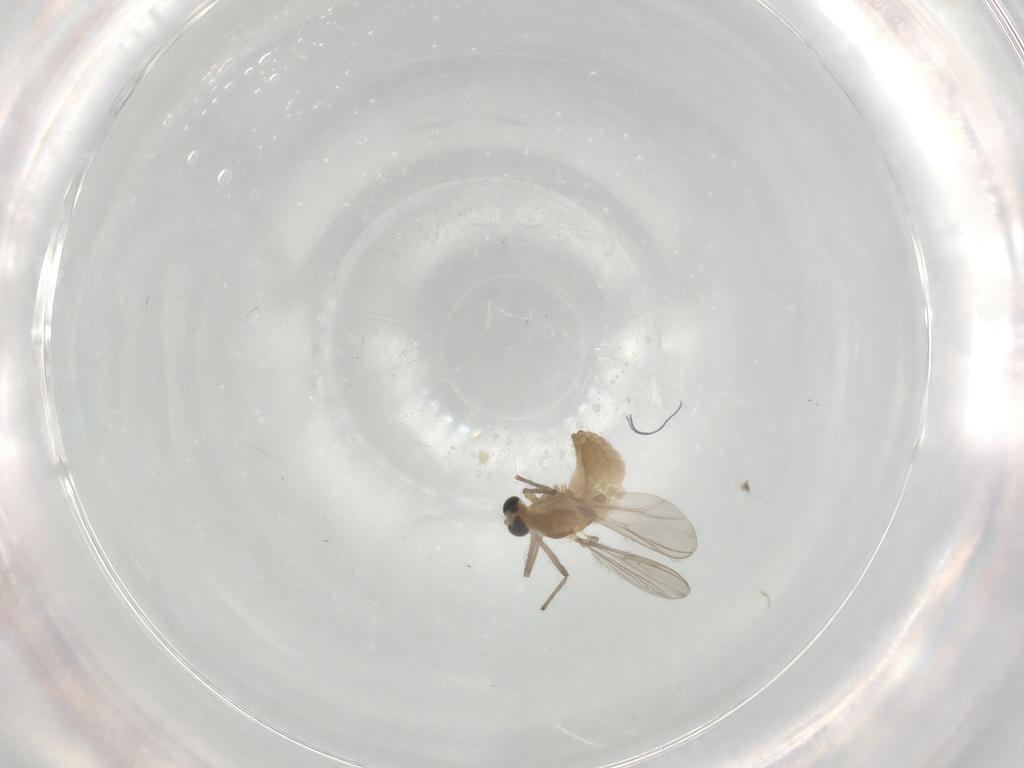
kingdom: Animalia
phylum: Arthropoda
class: Insecta
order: Diptera
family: Chironomidae
